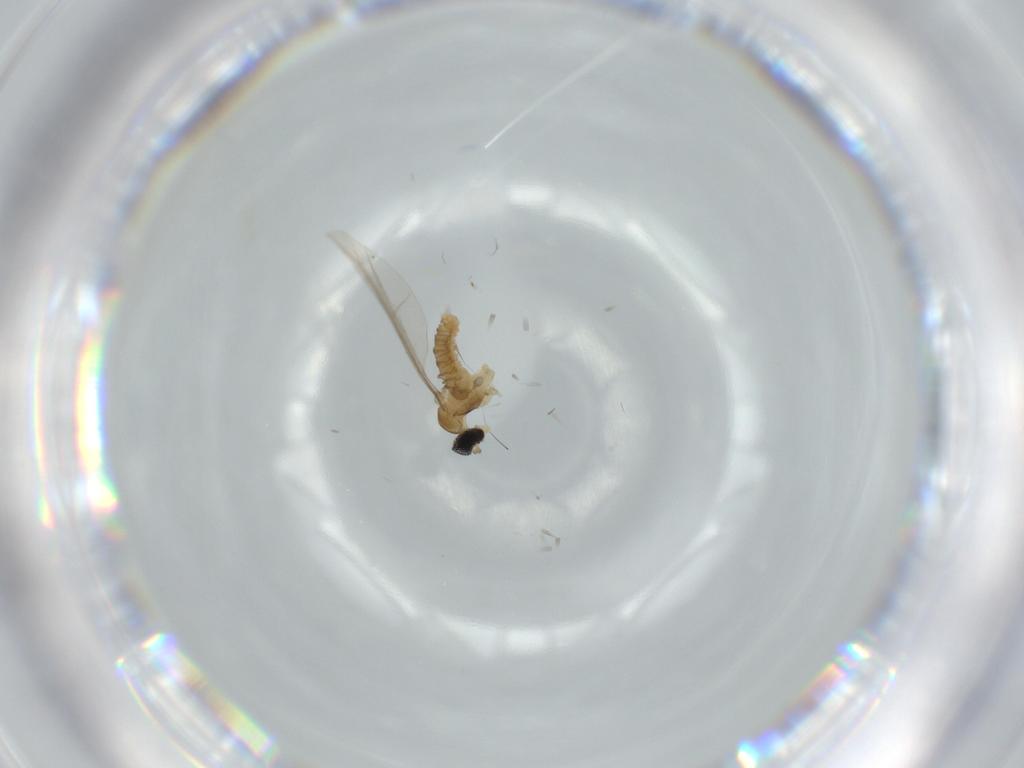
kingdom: Animalia
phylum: Arthropoda
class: Insecta
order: Diptera
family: Cecidomyiidae
